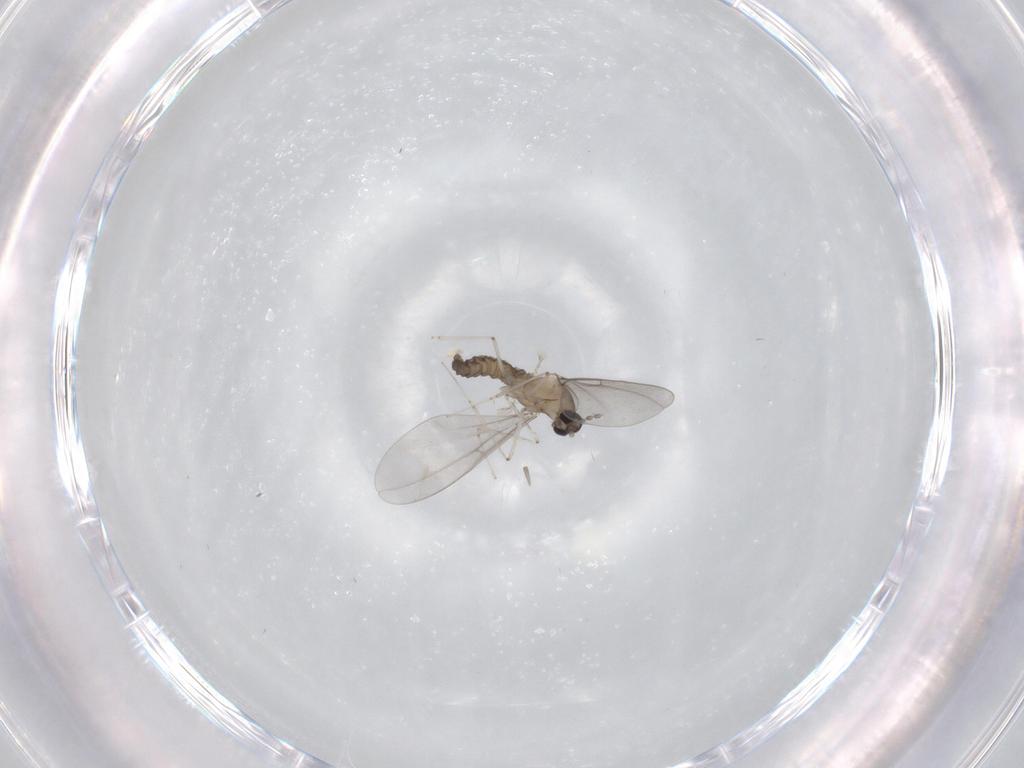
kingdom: Animalia
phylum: Arthropoda
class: Insecta
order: Diptera
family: Cecidomyiidae
